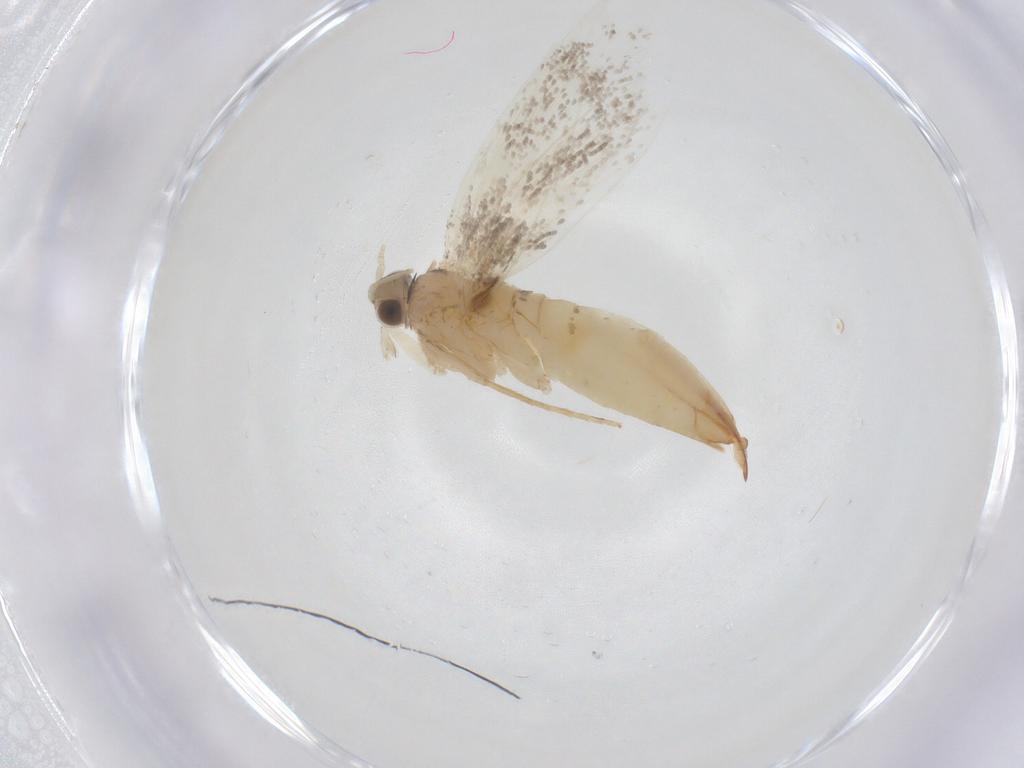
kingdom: Animalia
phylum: Arthropoda
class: Insecta
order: Lepidoptera
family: Tineidae
